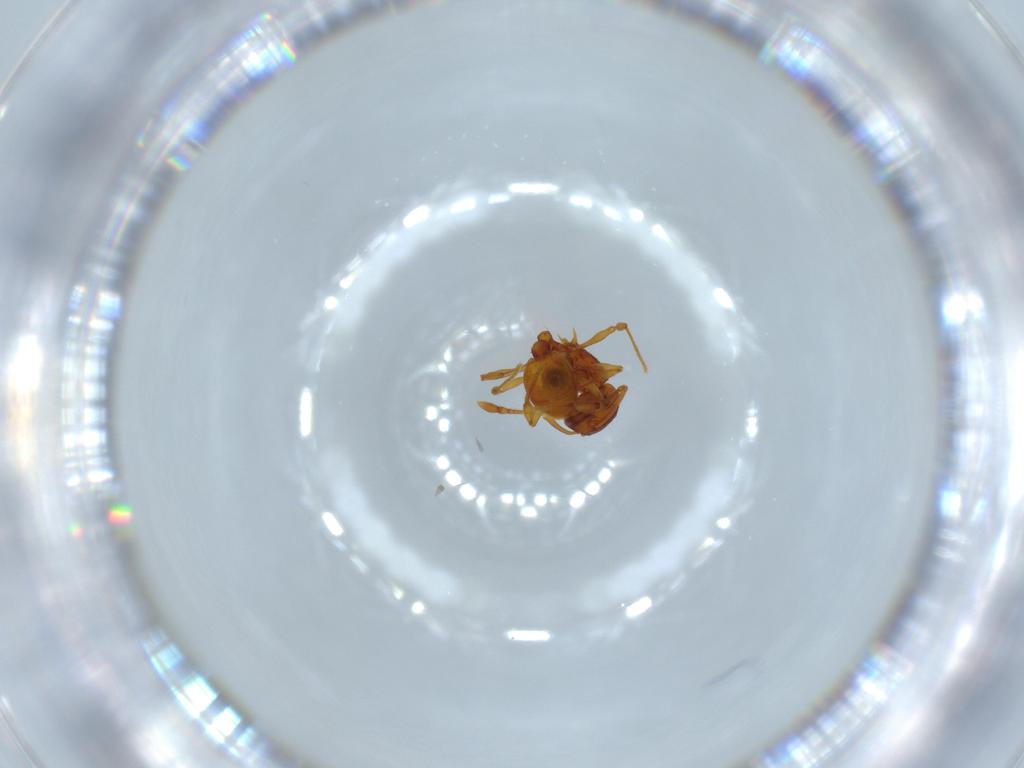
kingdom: Animalia
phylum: Arthropoda
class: Insecta
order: Hymenoptera
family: Formicidae
